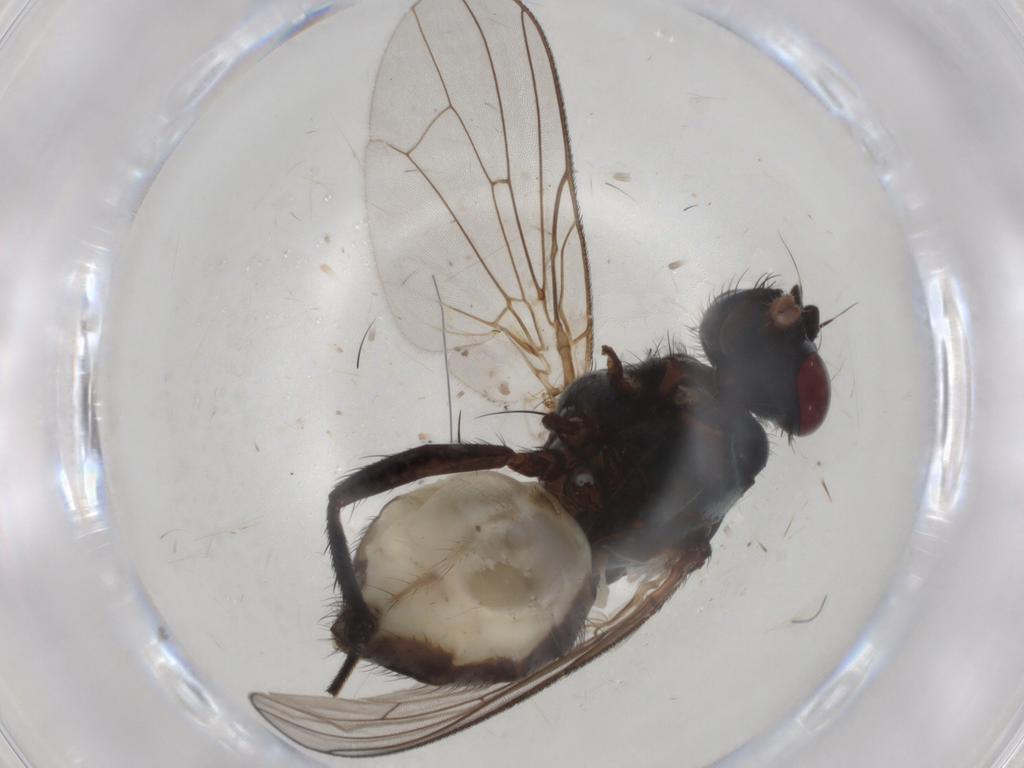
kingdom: Animalia
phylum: Arthropoda
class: Insecta
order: Diptera
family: Anthomyiidae
